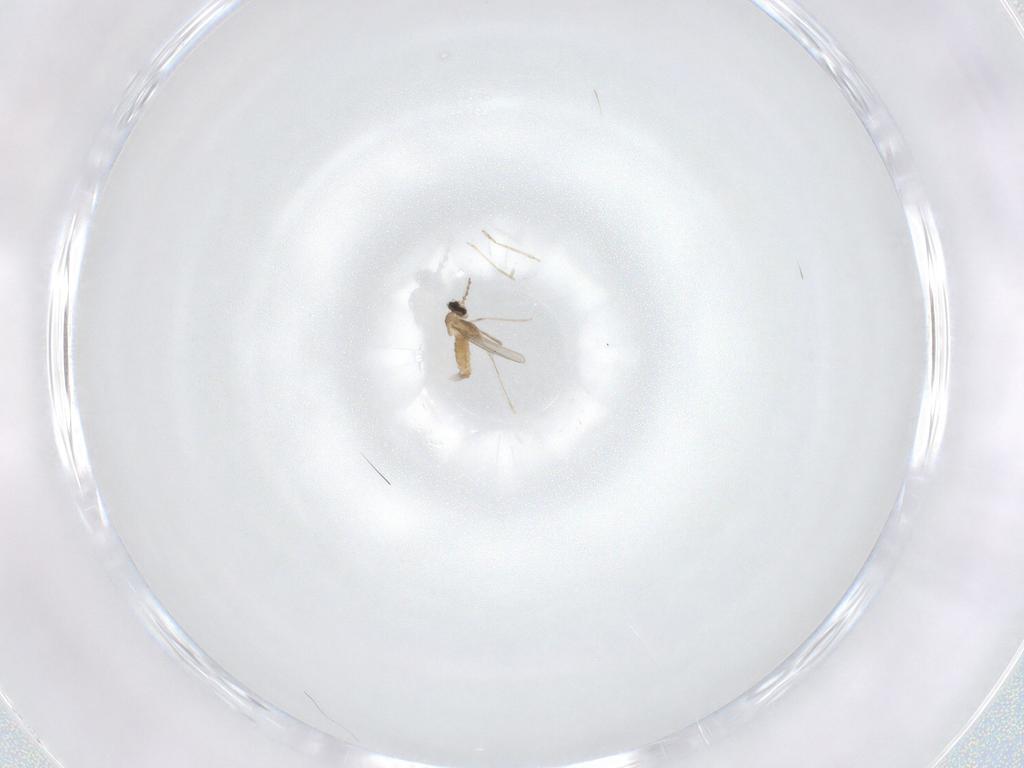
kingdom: Animalia
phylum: Arthropoda
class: Insecta
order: Diptera
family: Cecidomyiidae
